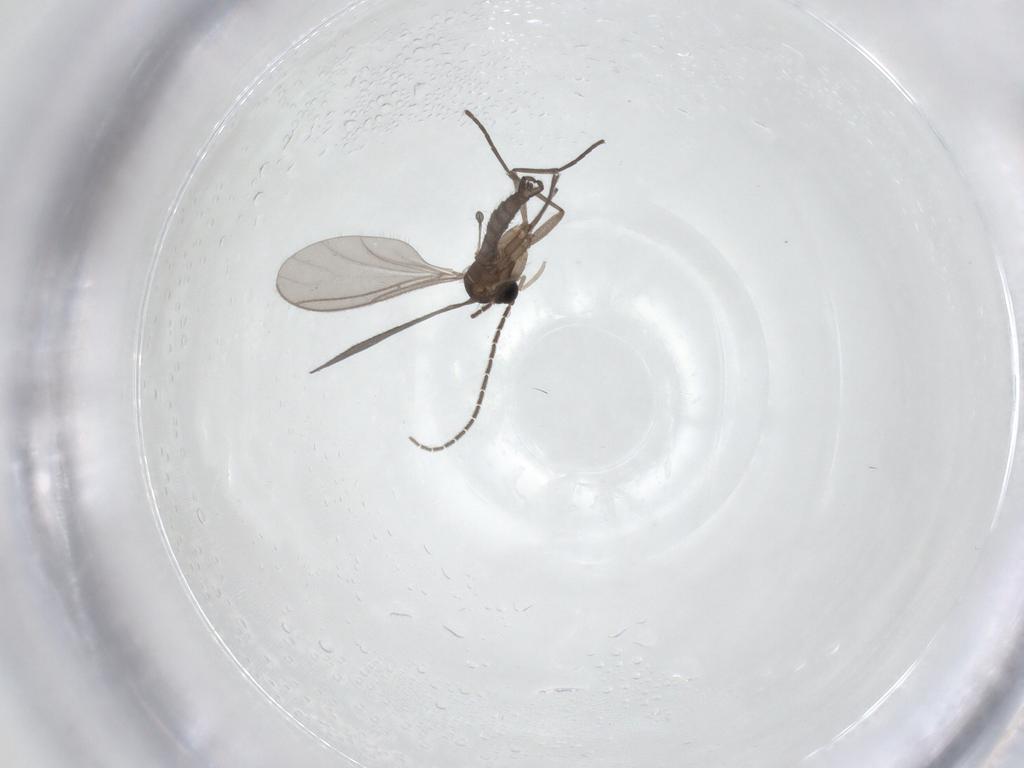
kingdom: Animalia
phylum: Arthropoda
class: Insecta
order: Diptera
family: Sciaridae
